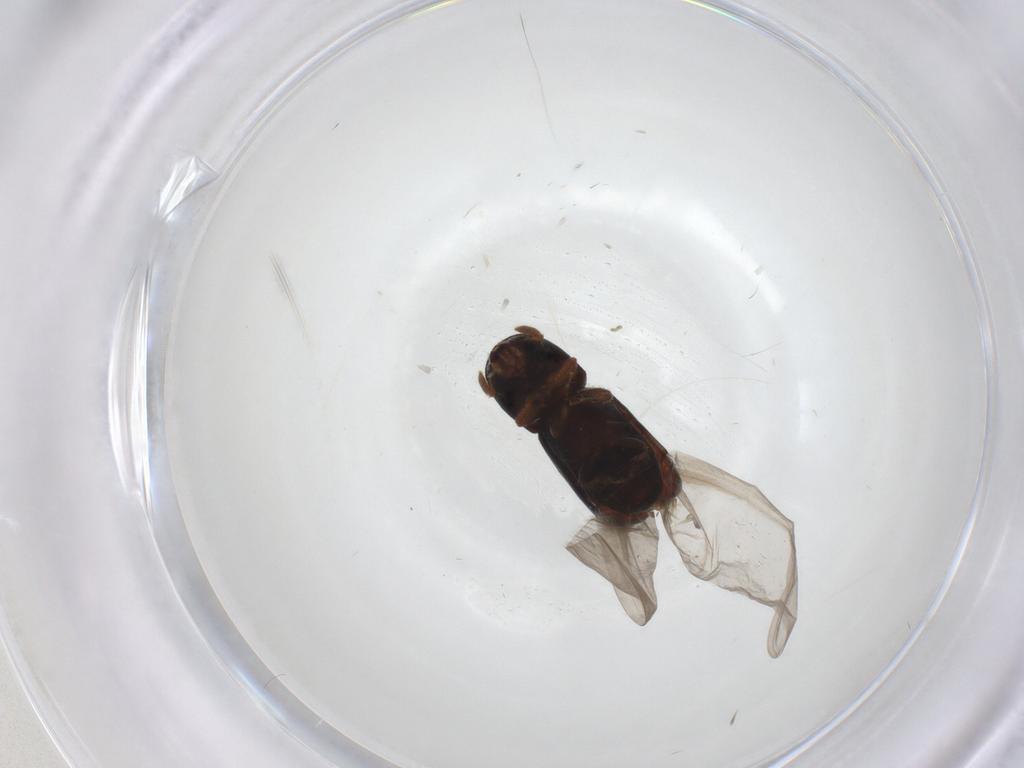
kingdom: Animalia
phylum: Arthropoda
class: Insecta
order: Coleoptera
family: Curculionidae
